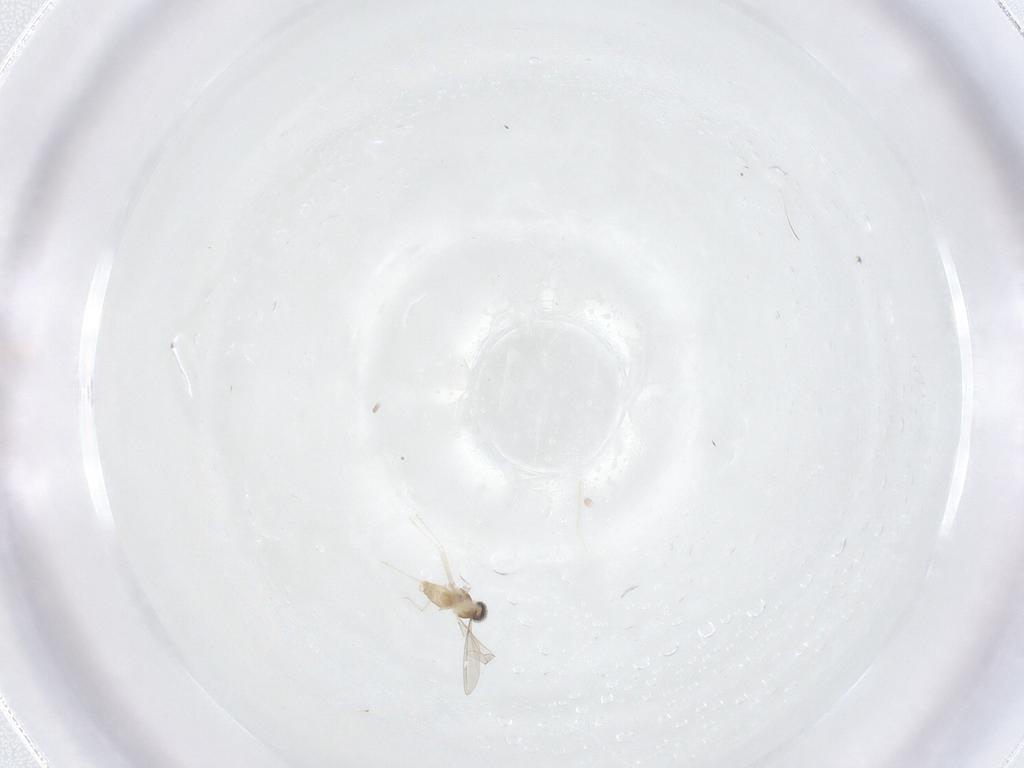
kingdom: Animalia
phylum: Arthropoda
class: Insecta
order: Diptera
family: Cecidomyiidae
